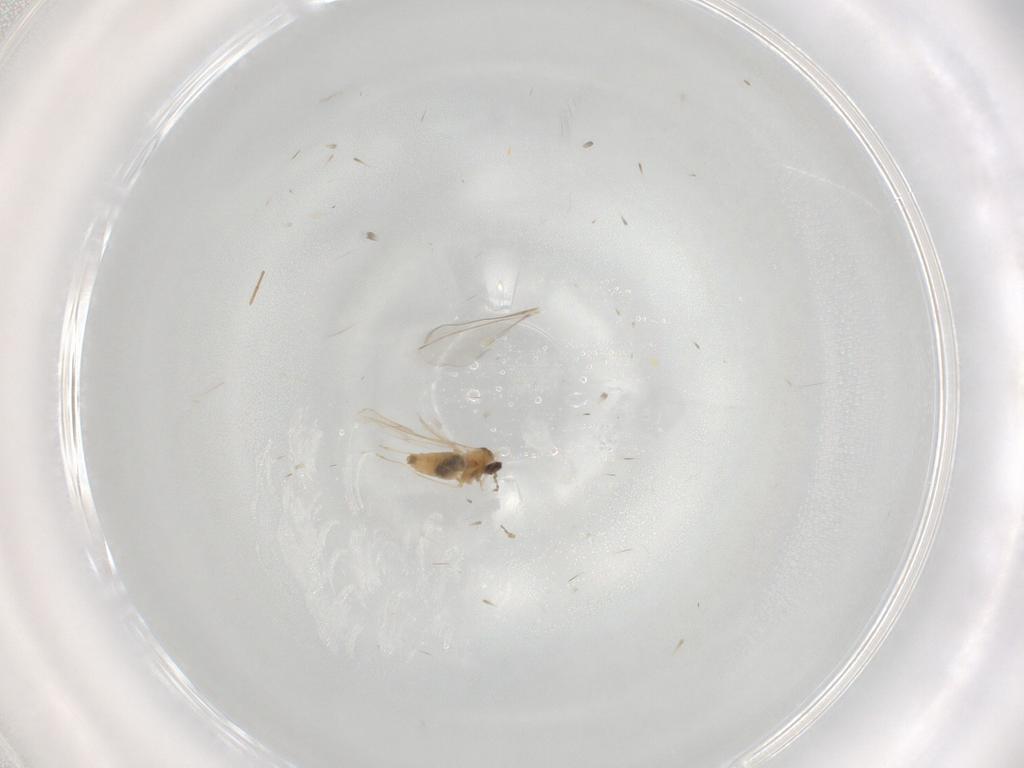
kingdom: Animalia
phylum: Arthropoda
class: Insecta
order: Diptera
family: Cecidomyiidae
